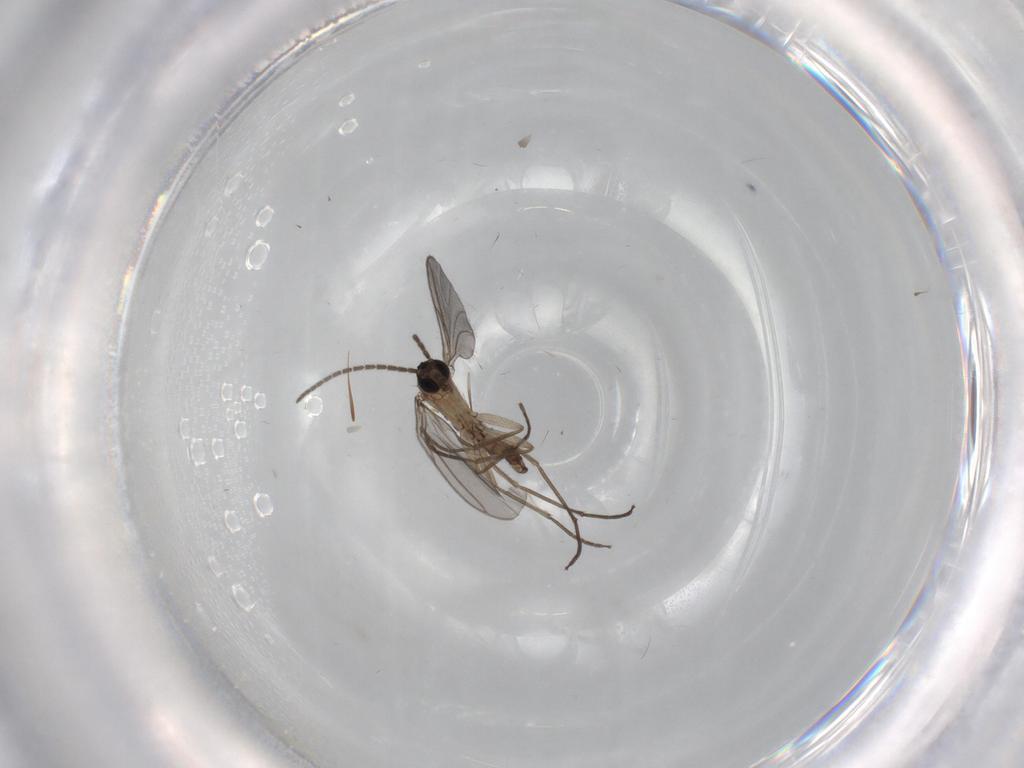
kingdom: Animalia
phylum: Arthropoda
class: Insecta
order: Diptera
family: Sciaridae
